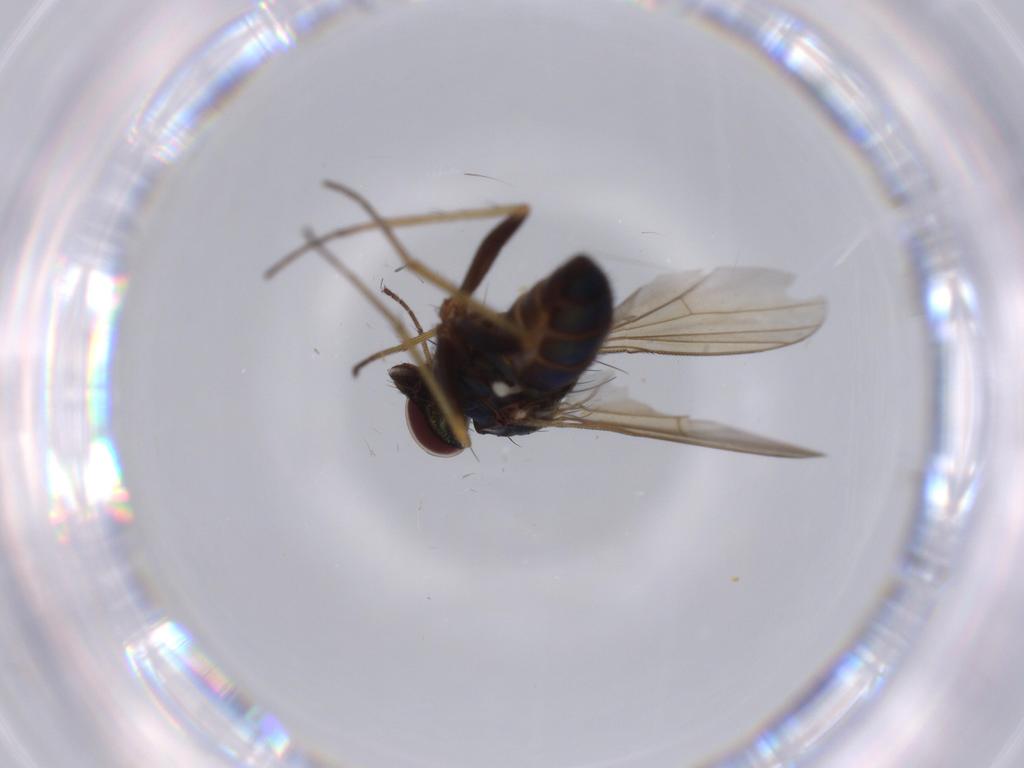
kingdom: Animalia
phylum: Arthropoda
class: Insecta
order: Diptera
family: Dolichopodidae
